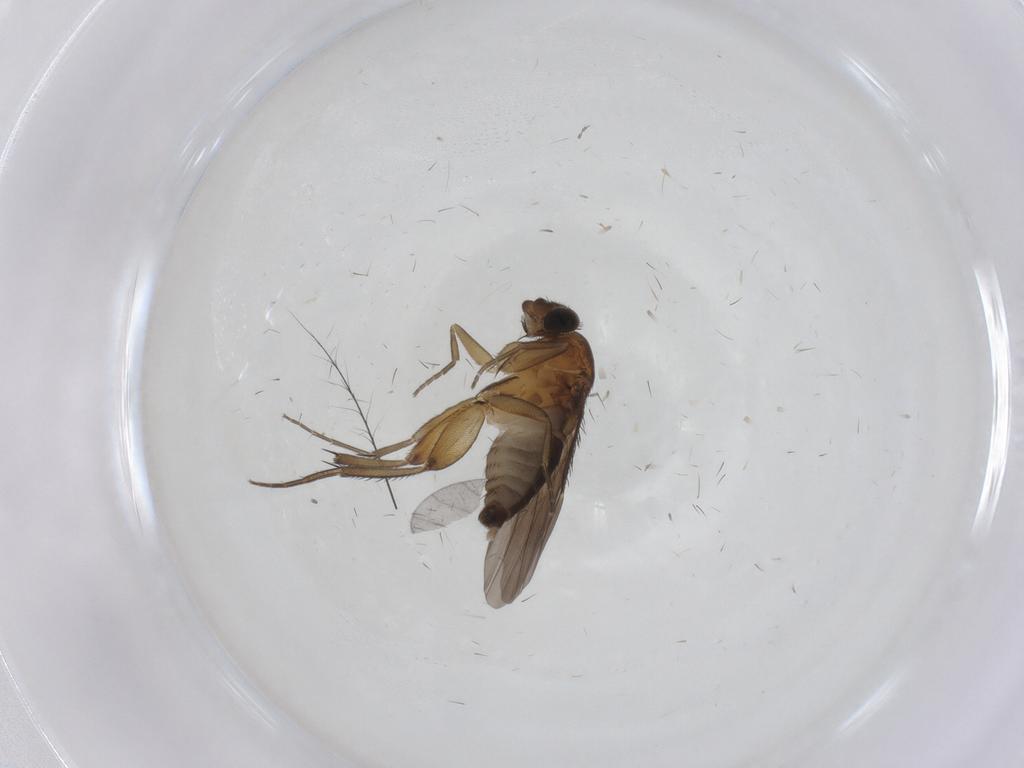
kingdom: Animalia
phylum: Arthropoda
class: Insecta
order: Diptera
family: Phoridae
